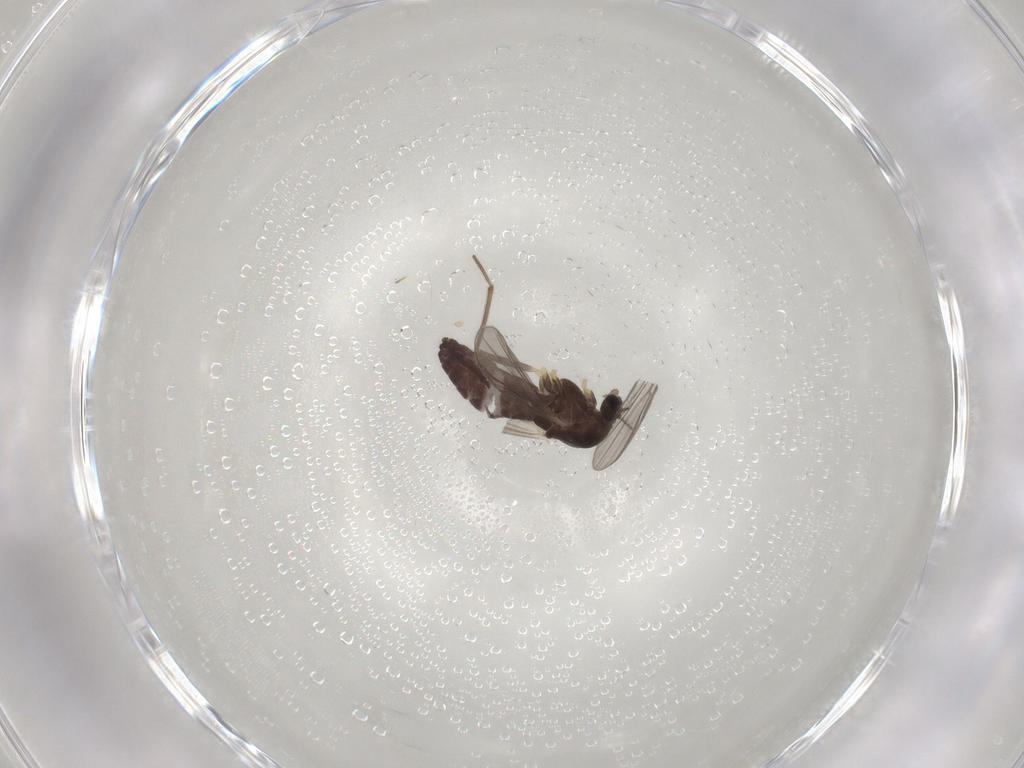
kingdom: Animalia
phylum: Arthropoda
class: Insecta
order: Diptera
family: Chironomidae
